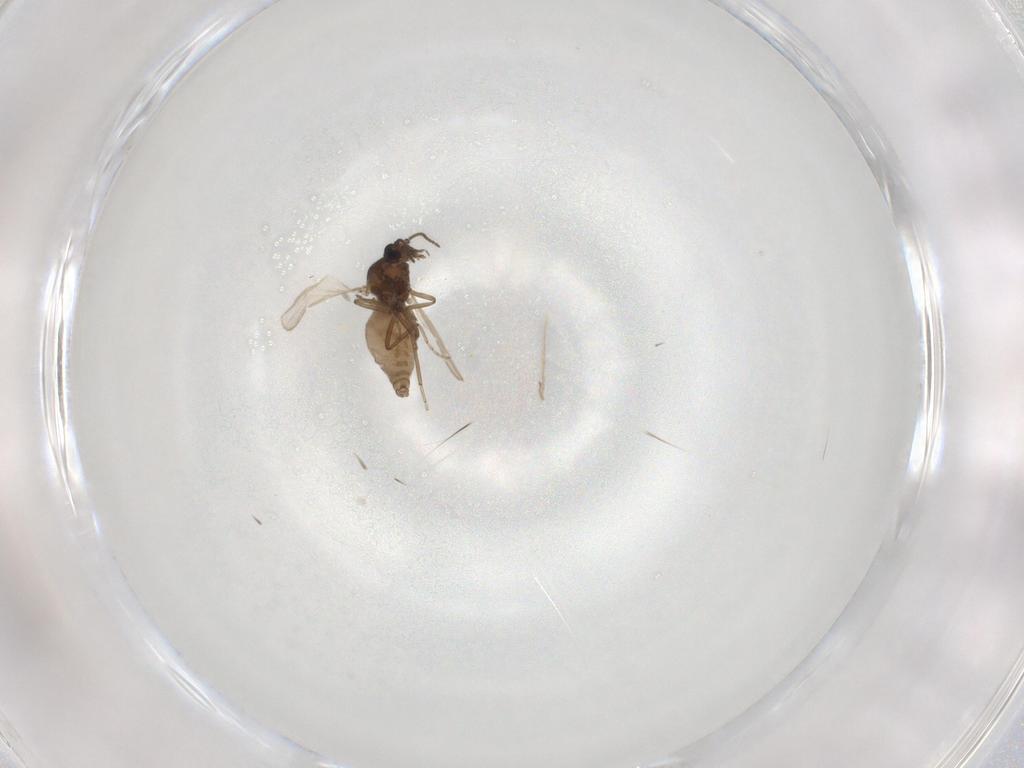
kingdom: Animalia
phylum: Arthropoda
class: Insecta
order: Diptera
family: Ceratopogonidae
